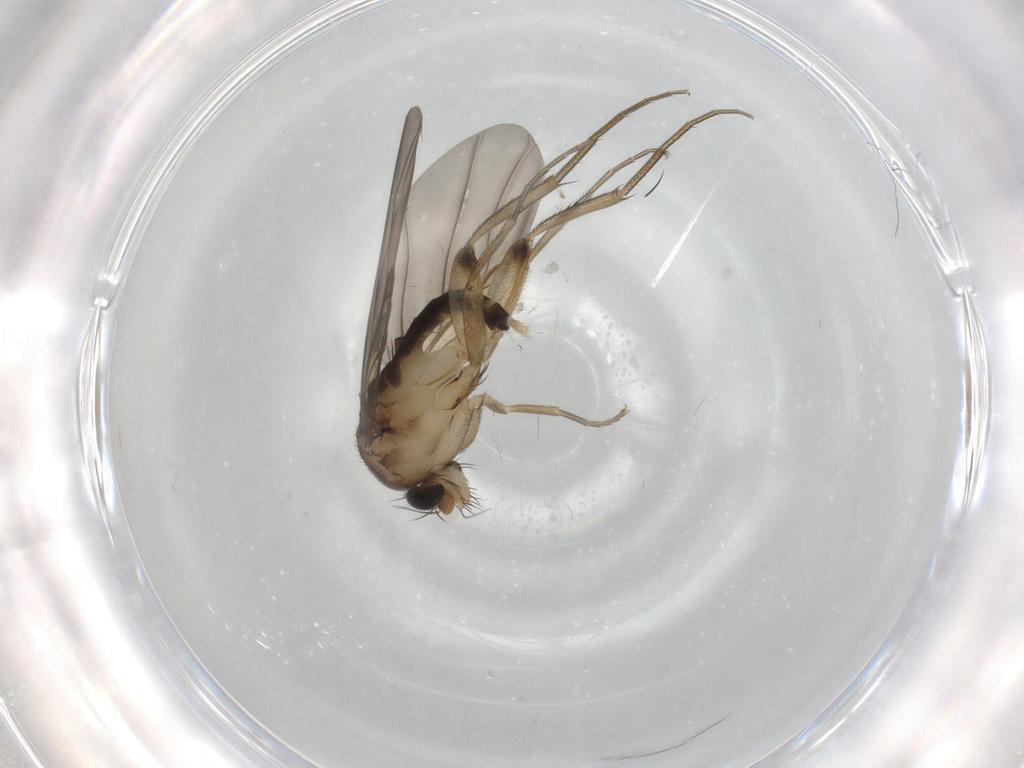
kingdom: Animalia
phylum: Arthropoda
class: Insecta
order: Diptera
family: Phoridae
